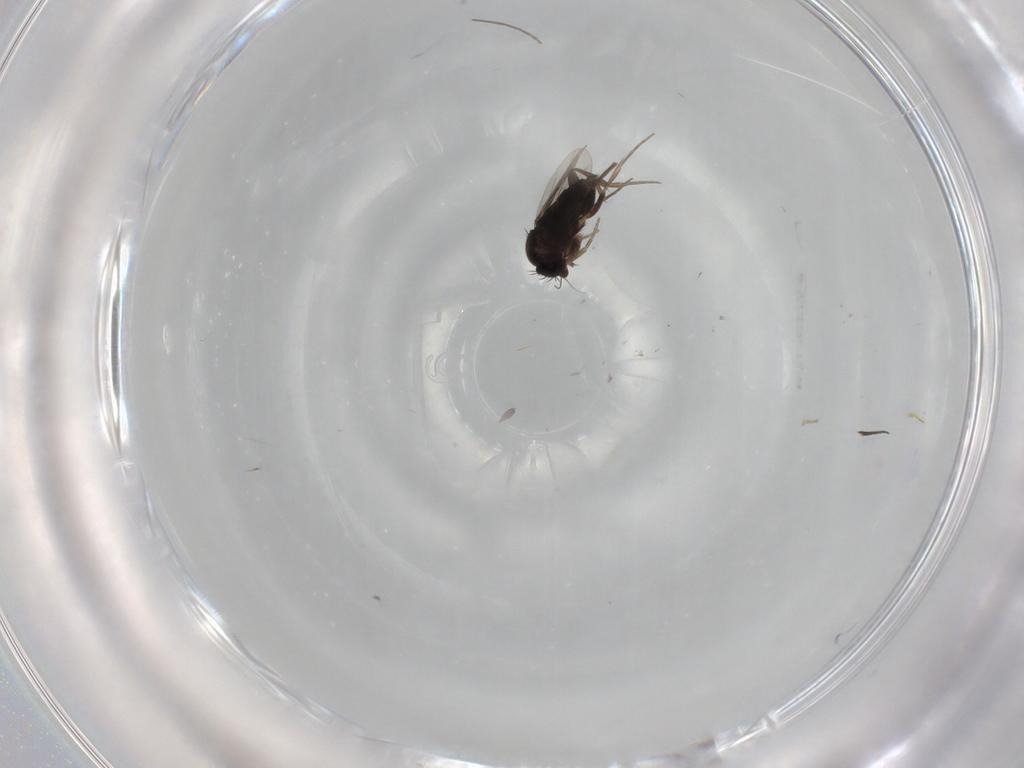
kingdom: Animalia
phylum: Arthropoda
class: Insecta
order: Diptera
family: Phoridae
